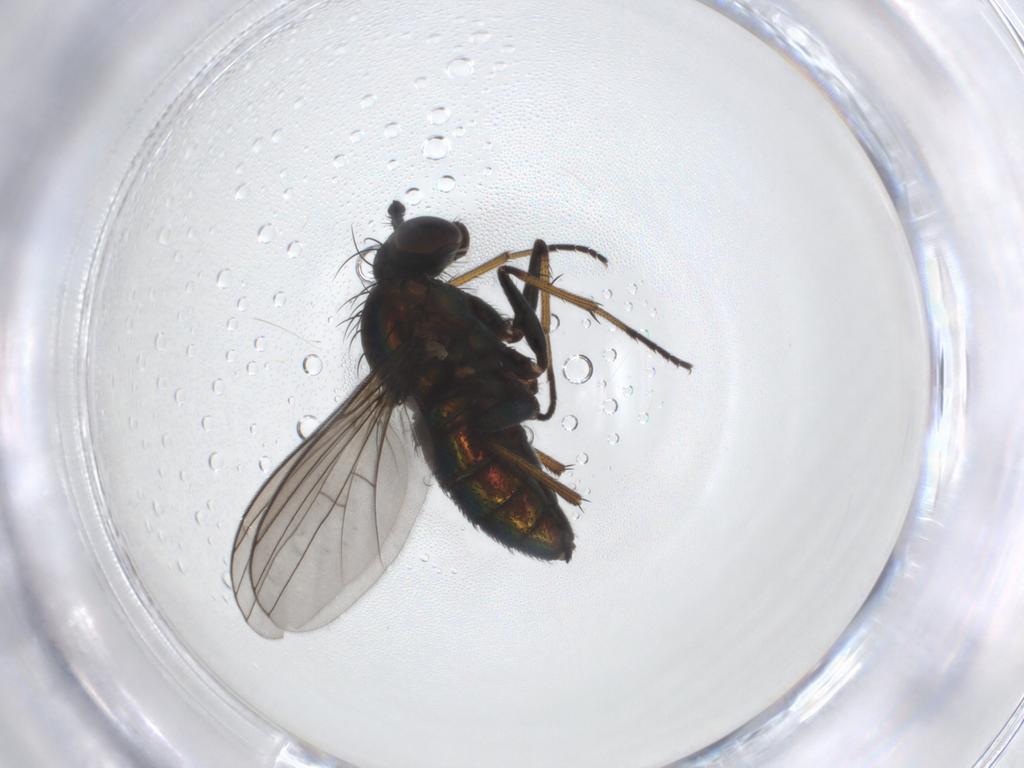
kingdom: Animalia
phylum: Arthropoda
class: Insecta
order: Diptera
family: Dolichopodidae
